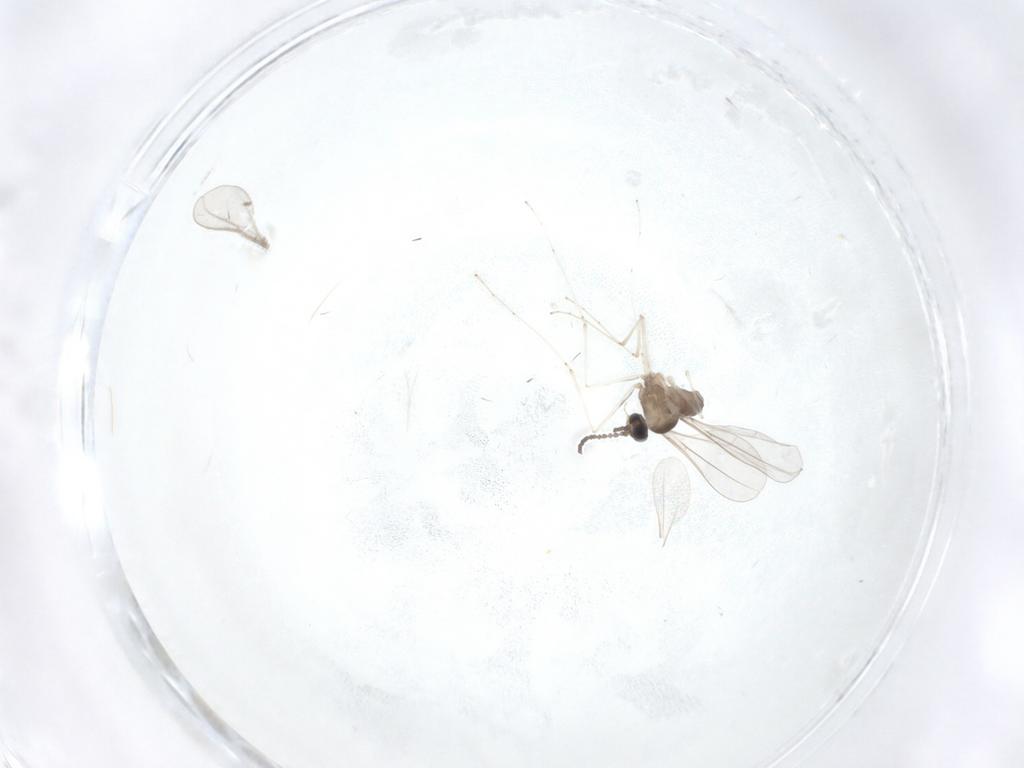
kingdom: Animalia
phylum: Arthropoda
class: Insecta
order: Diptera
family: Cecidomyiidae
